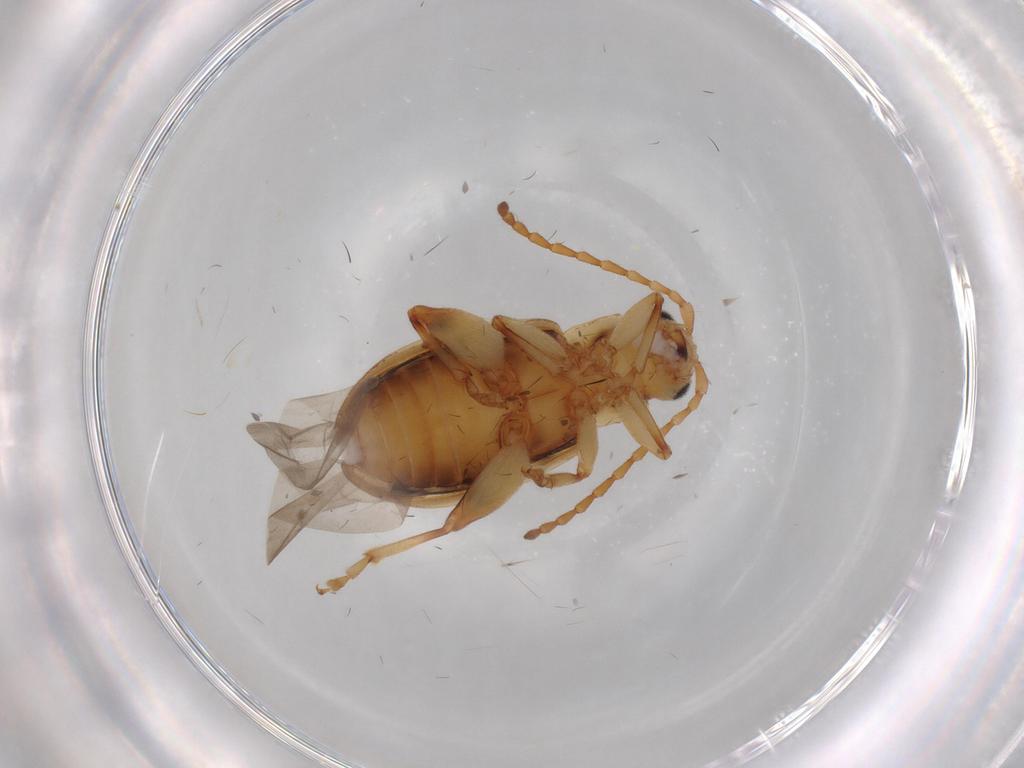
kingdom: Animalia
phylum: Arthropoda
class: Insecta
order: Coleoptera
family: Chrysomelidae
